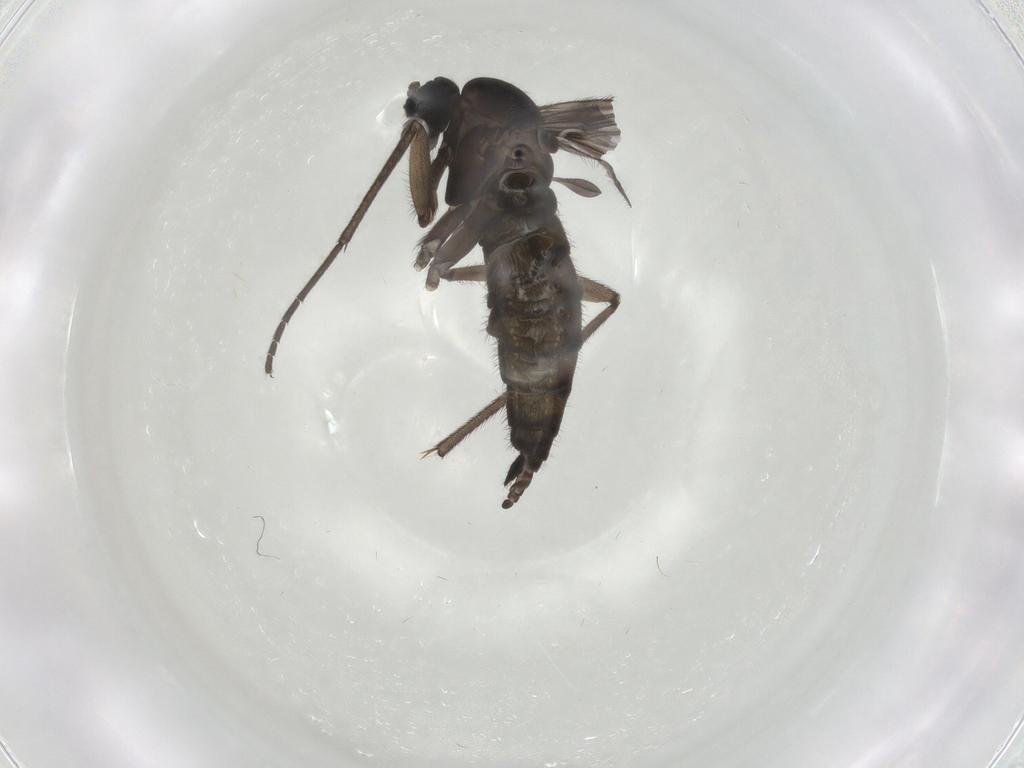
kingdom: Animalia
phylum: Arthropoda
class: Insecta
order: Diptera
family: Sciaridae
